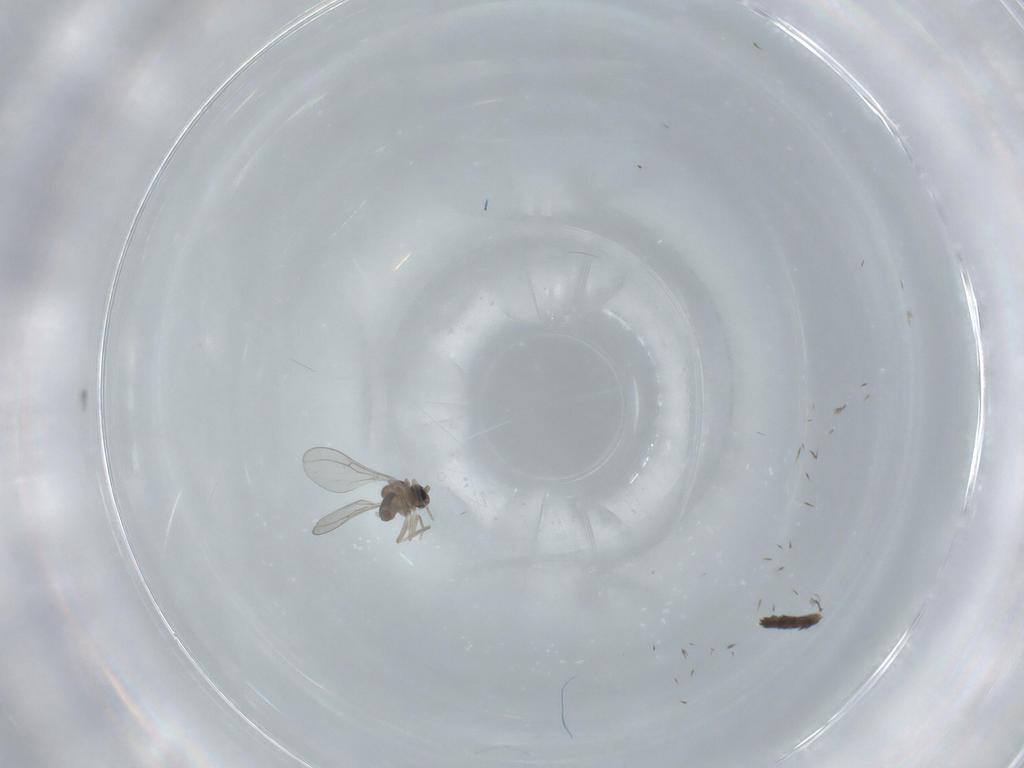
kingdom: Animalia
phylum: Arthropoda
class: Insecta
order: Diptera
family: Cecidomyiidae
